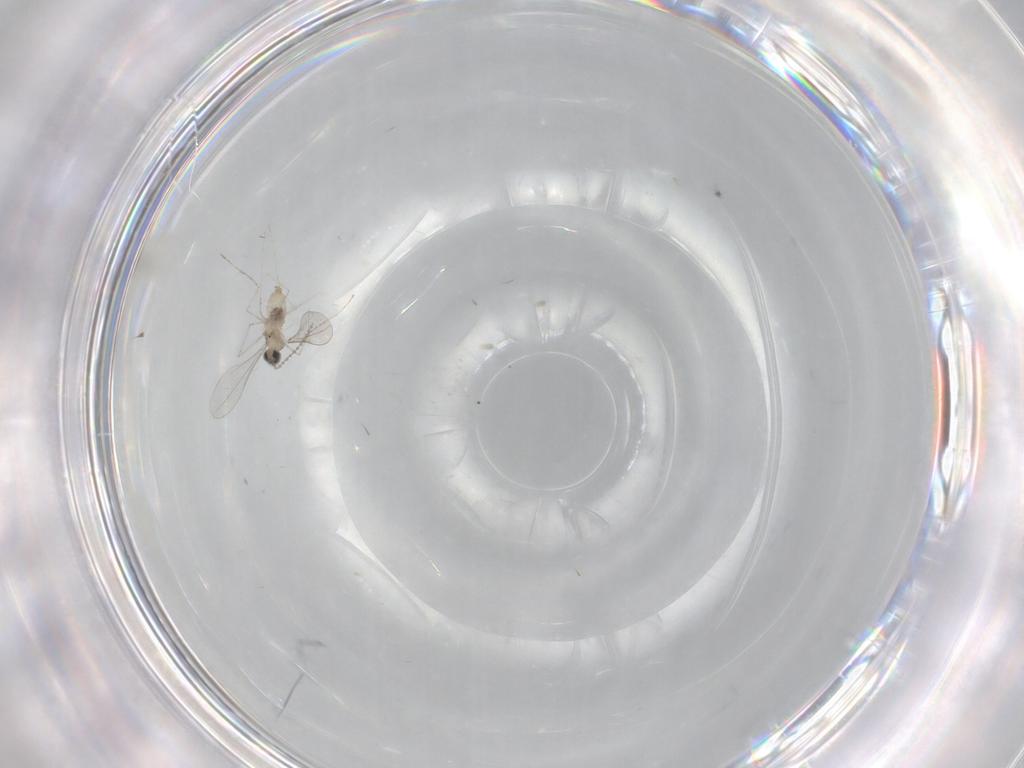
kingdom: Animalia
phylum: Arthropoda
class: Insecta
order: Diptera
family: Cecidomyiidae
